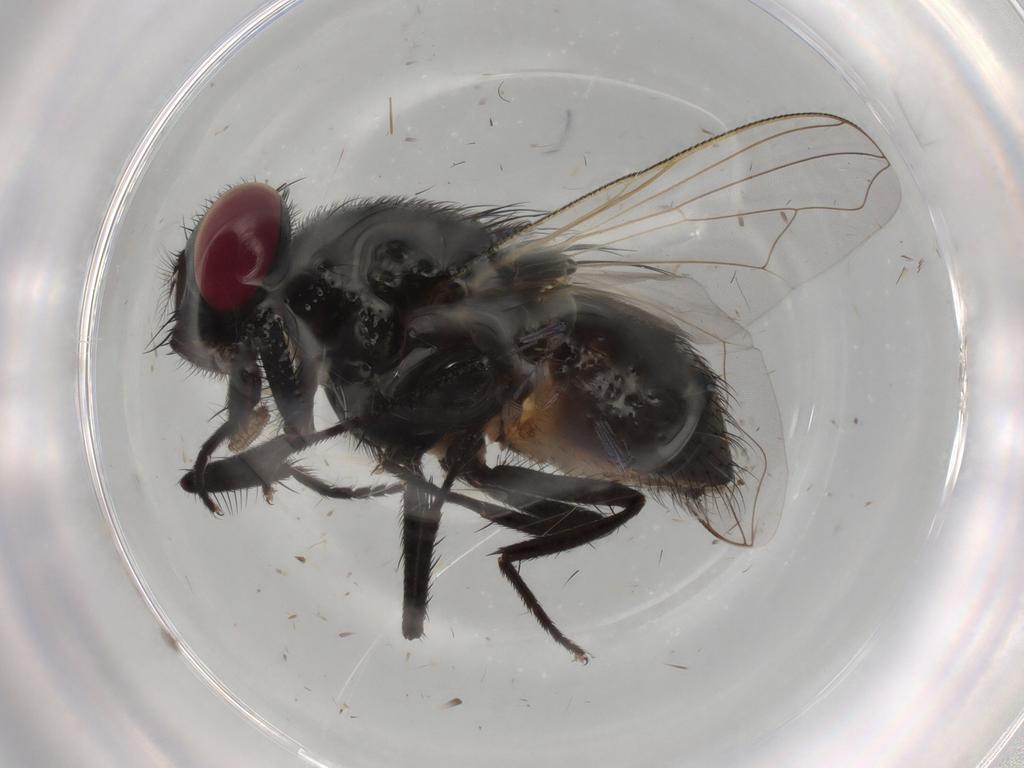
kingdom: Animalia
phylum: Arthropoda
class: Insecta
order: Diptera
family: Muscidae
